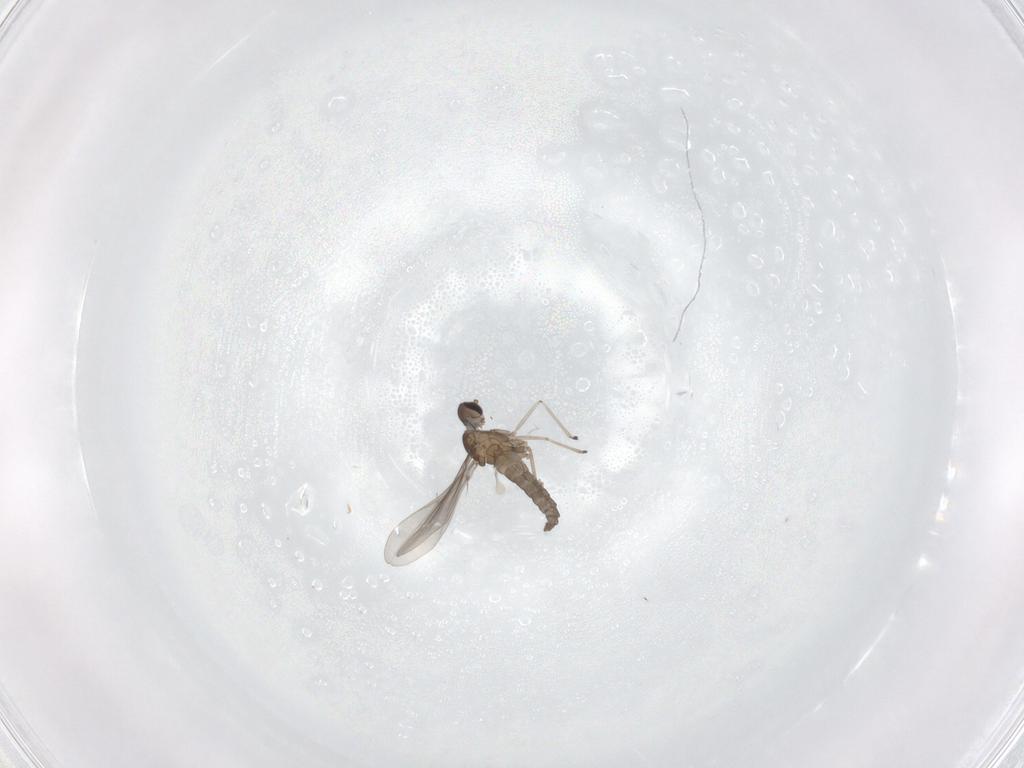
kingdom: Animalia
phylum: Arthropoda
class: Insecta
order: Diptera
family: Cecidomyiidae
